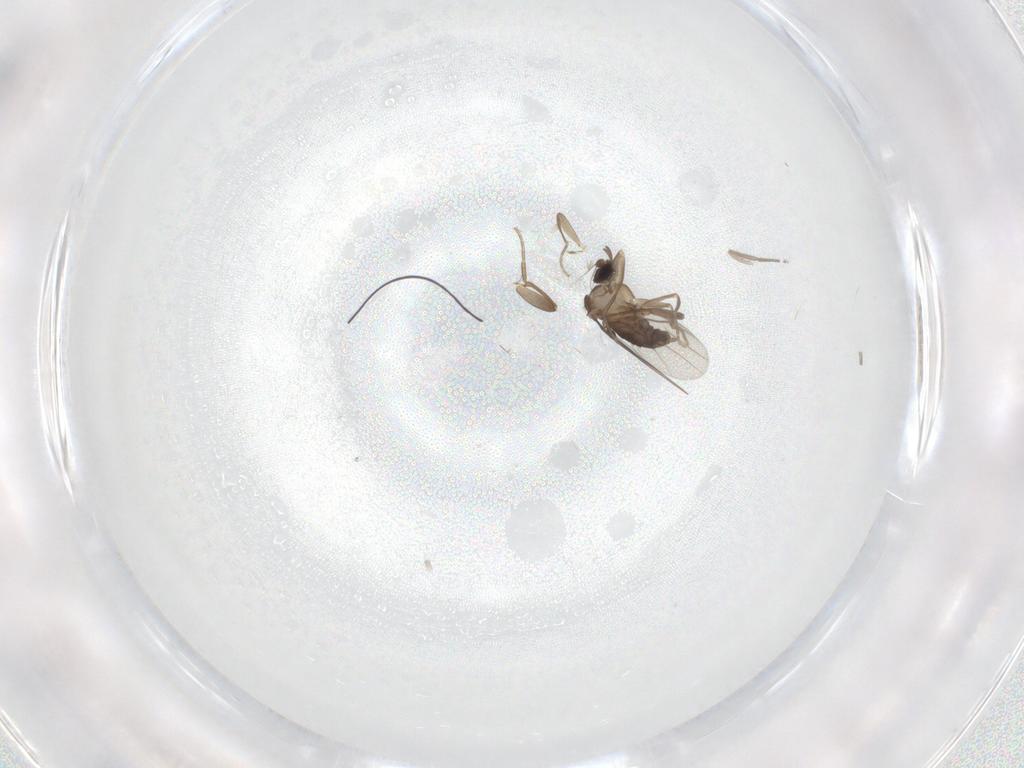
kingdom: Animalia
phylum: Arthropoda
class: Insecta
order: Diptera
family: Psychodidae
